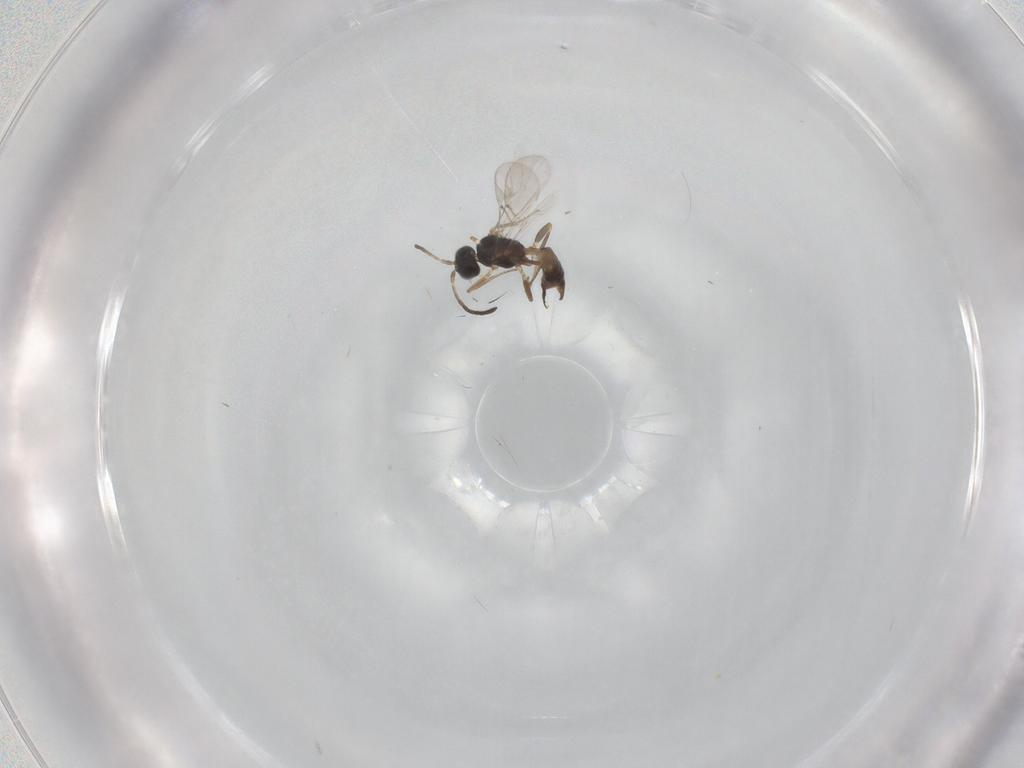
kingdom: Animalia
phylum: Arthropoda
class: Insecta
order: Hymenoptera
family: Braconidae
